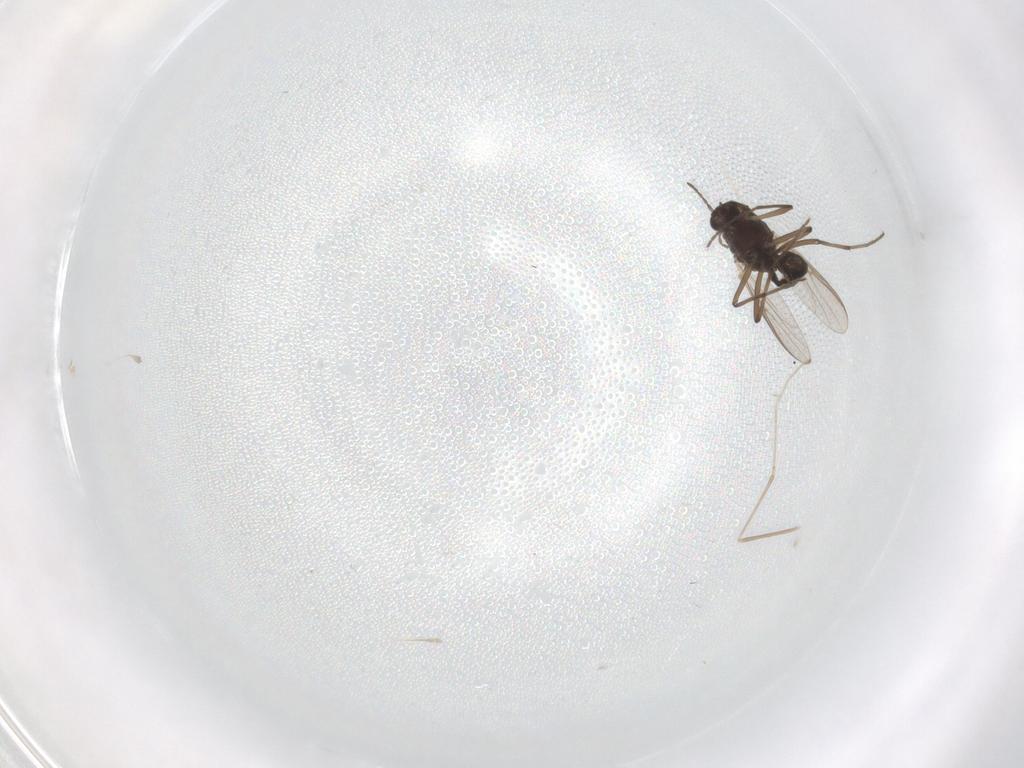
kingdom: Animalia
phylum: Arthropoda
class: Insecta
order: Diptera
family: Chironomidae
